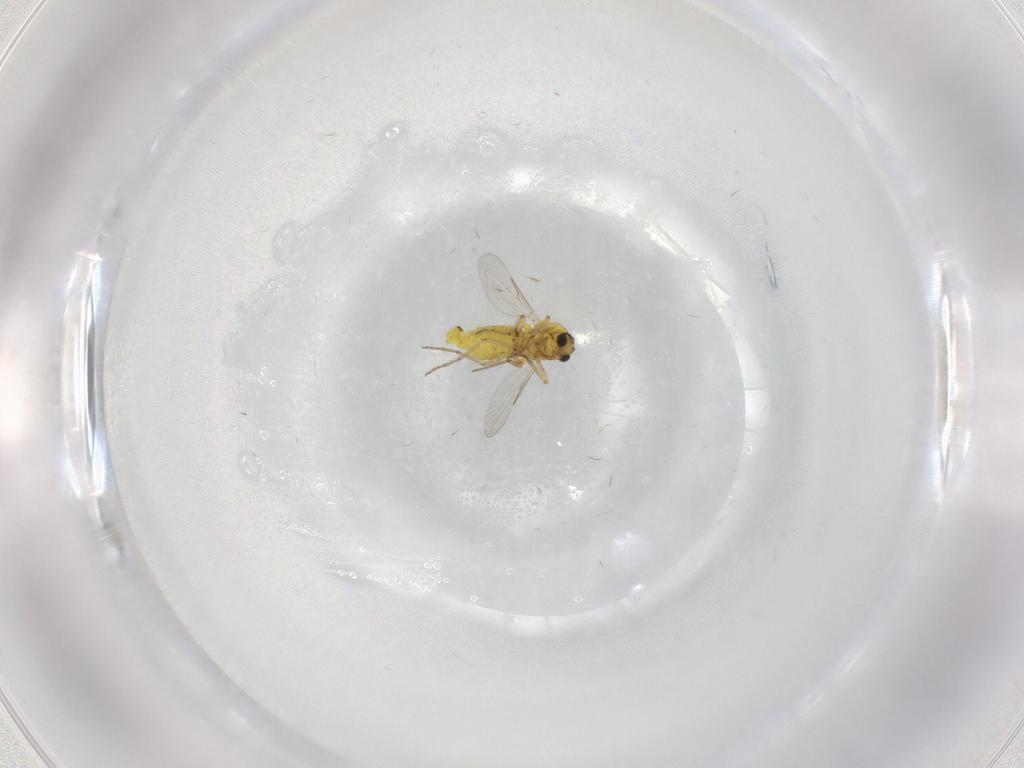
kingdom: Animalia
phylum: Arthropoda
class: Insecta
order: Diptera
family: Ceratopogonidae
